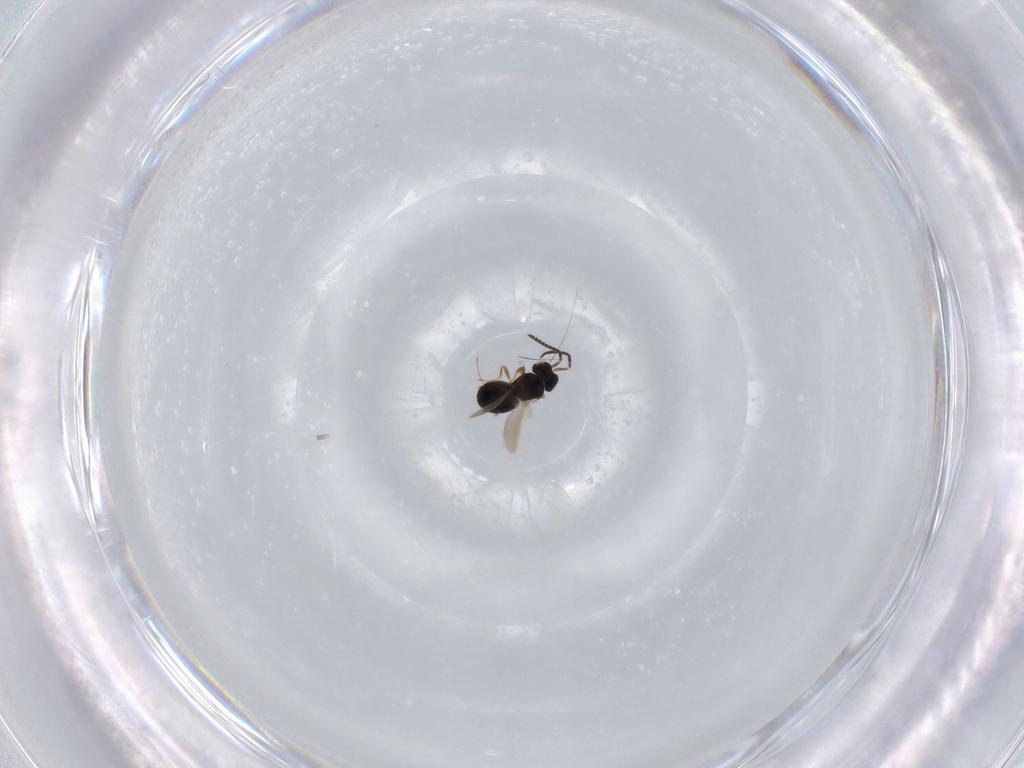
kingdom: Animalia
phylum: Arthropoda
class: Insecta
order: Hymenoptera
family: Scelionidae
